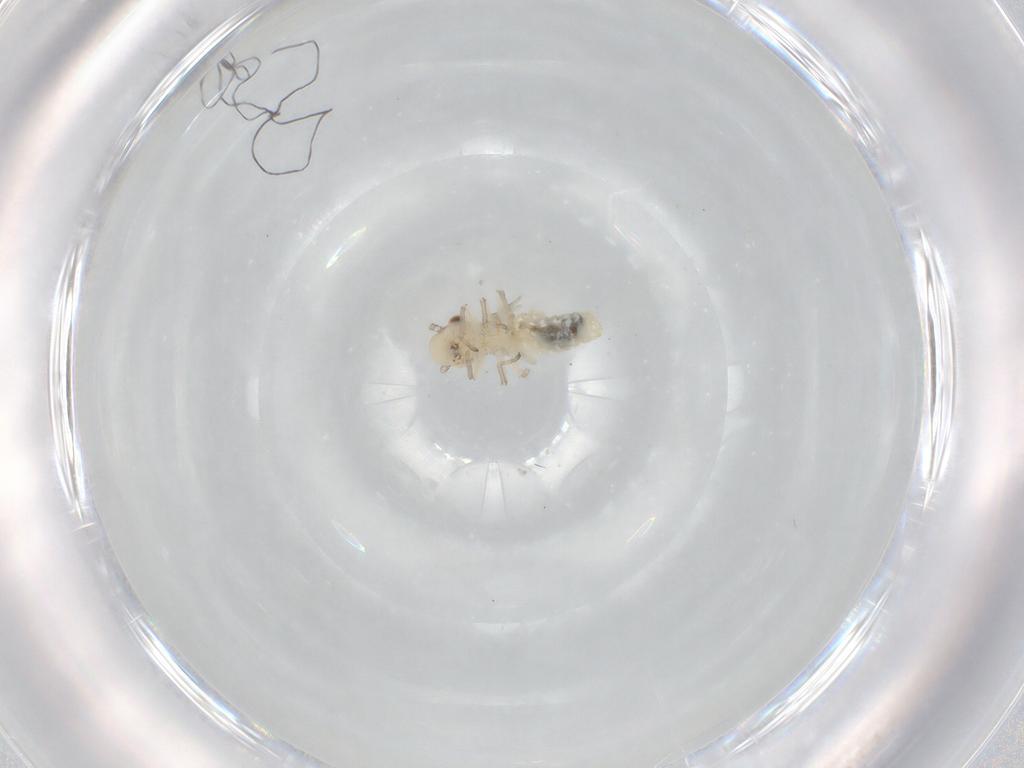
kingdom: Animalia
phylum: Arthropoda
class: Insecta
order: Psocodea
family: Caeciliusidae
